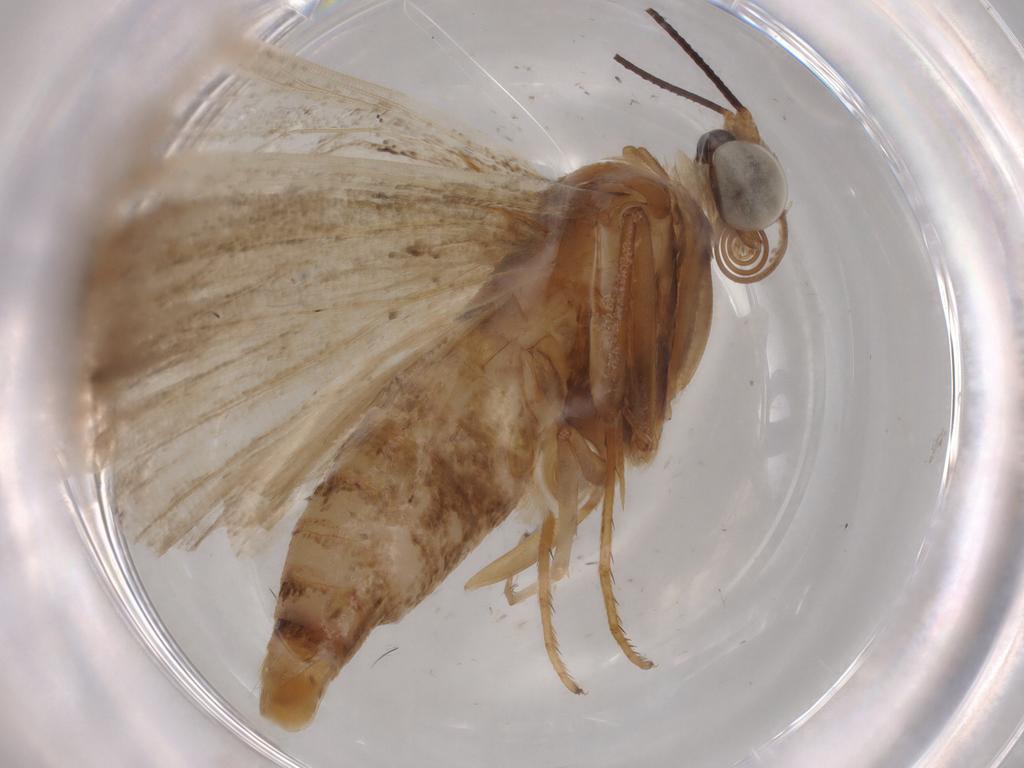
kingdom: Animalia
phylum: Arthropoda
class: Insecta
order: Lepidoptera
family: Autostichidae
